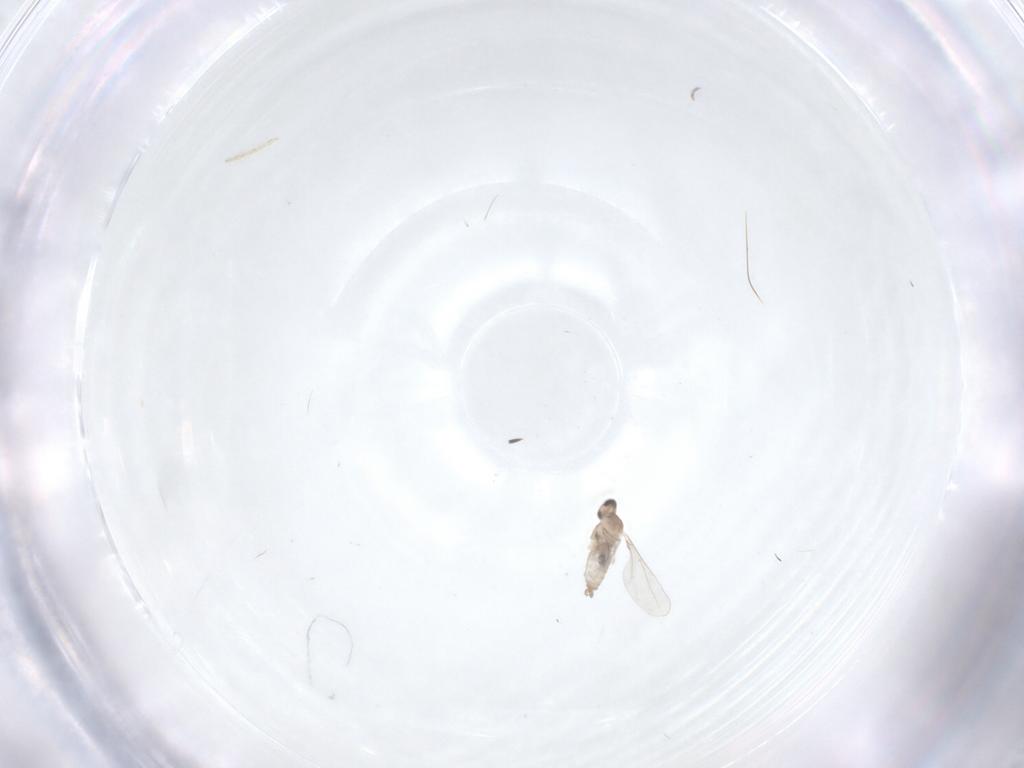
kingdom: Animalia
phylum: Arthropoda
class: Insecta
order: Diptera
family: Cecidomyiidae
